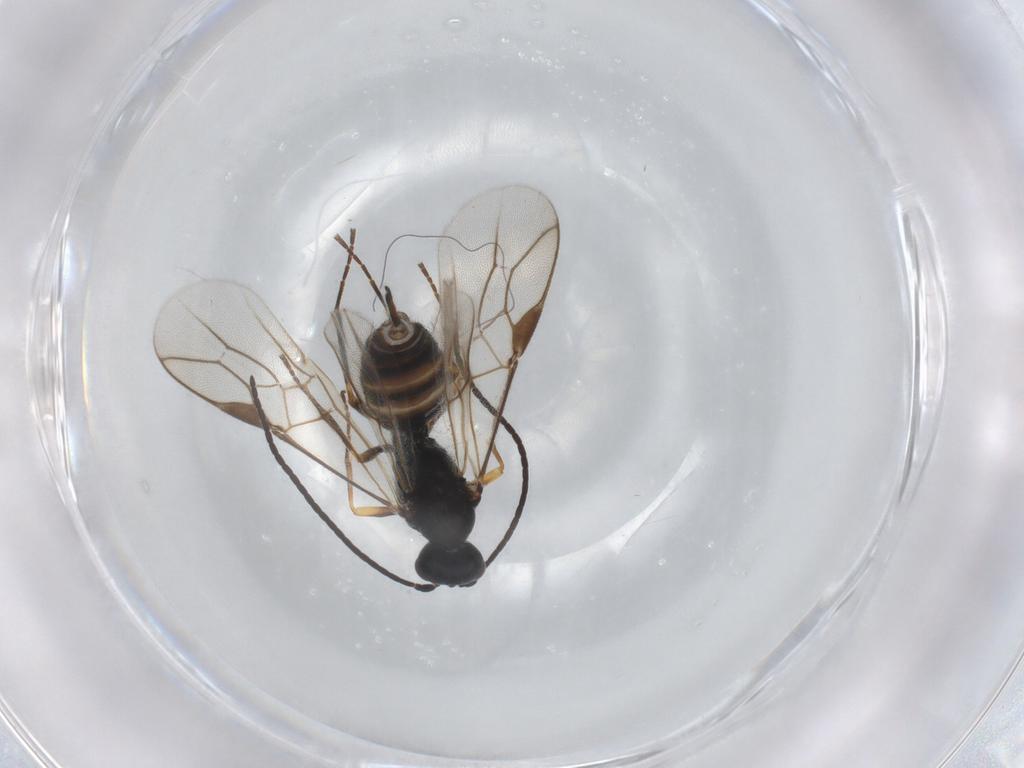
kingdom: Animalia
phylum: Arthropoda
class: Insecta
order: Hymenoptera
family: Braconidae
